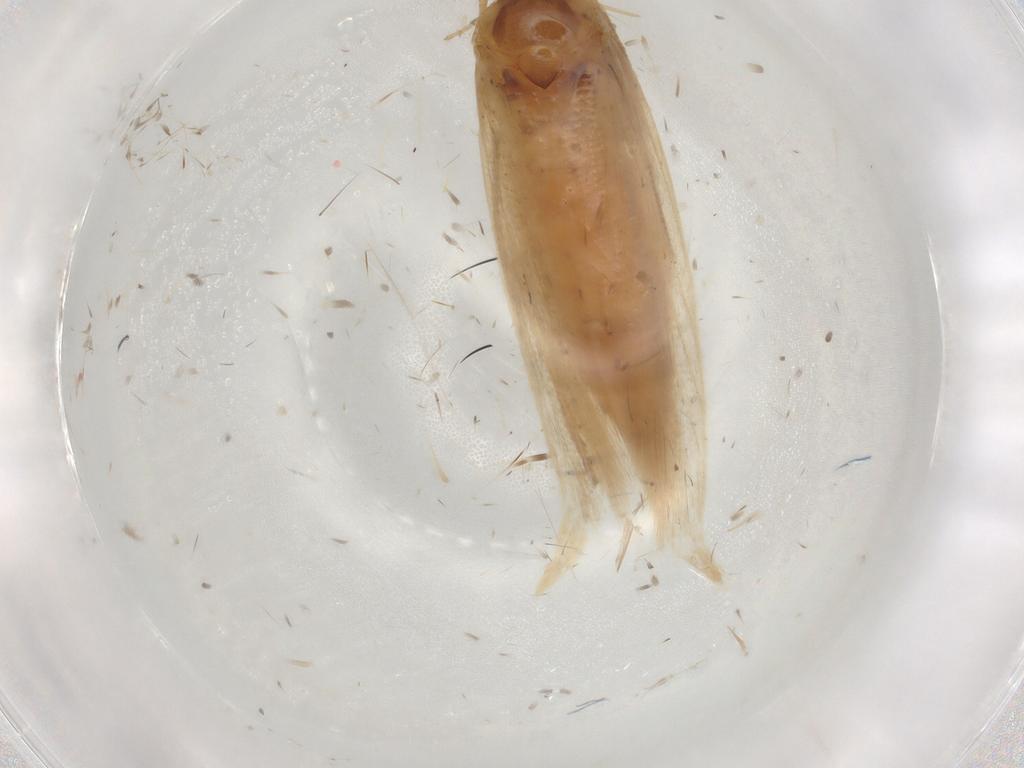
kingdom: Animalia
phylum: Arthropoda
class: Insecta
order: Lepidoptera
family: Gelechiidae
